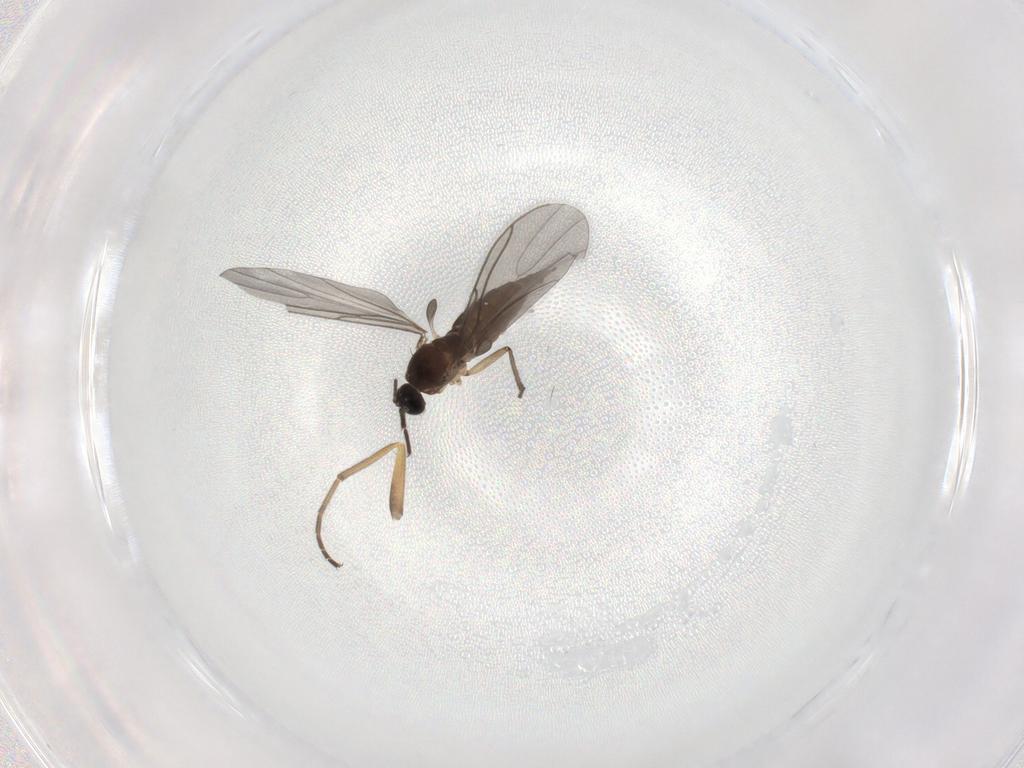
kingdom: Animalia
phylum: Arthropoda
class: Insecta
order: Diptera
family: Sciaridae
